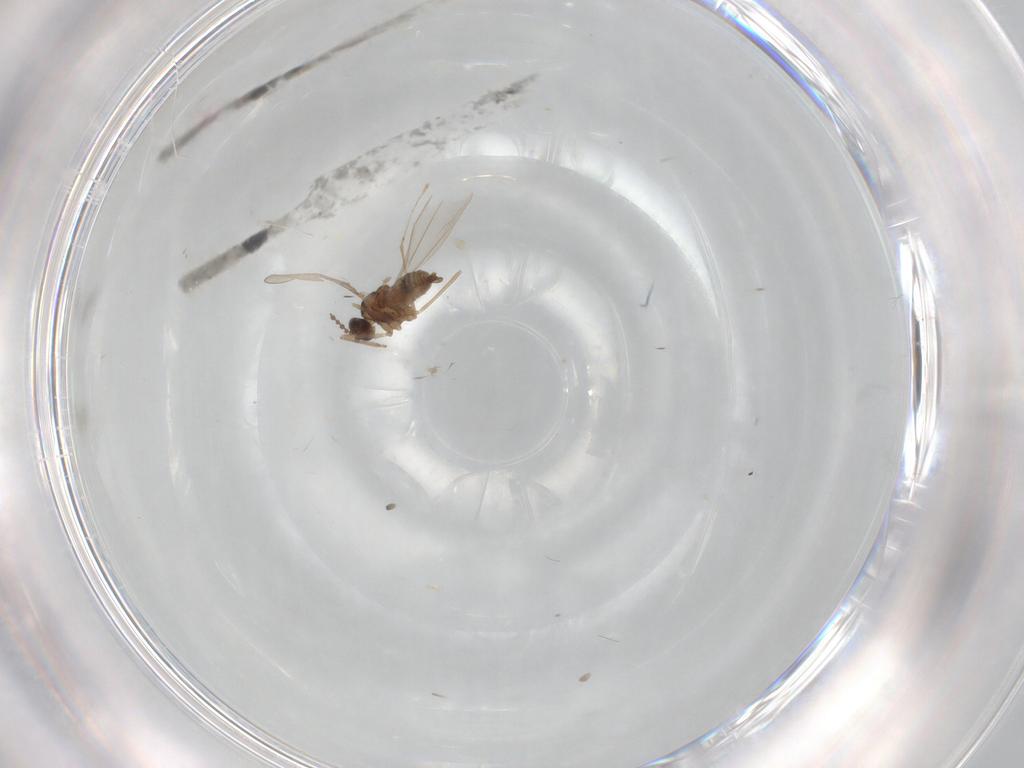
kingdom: Animalia
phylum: Arthropoda
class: Insecta
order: Diptera
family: Cecidomyiidae
